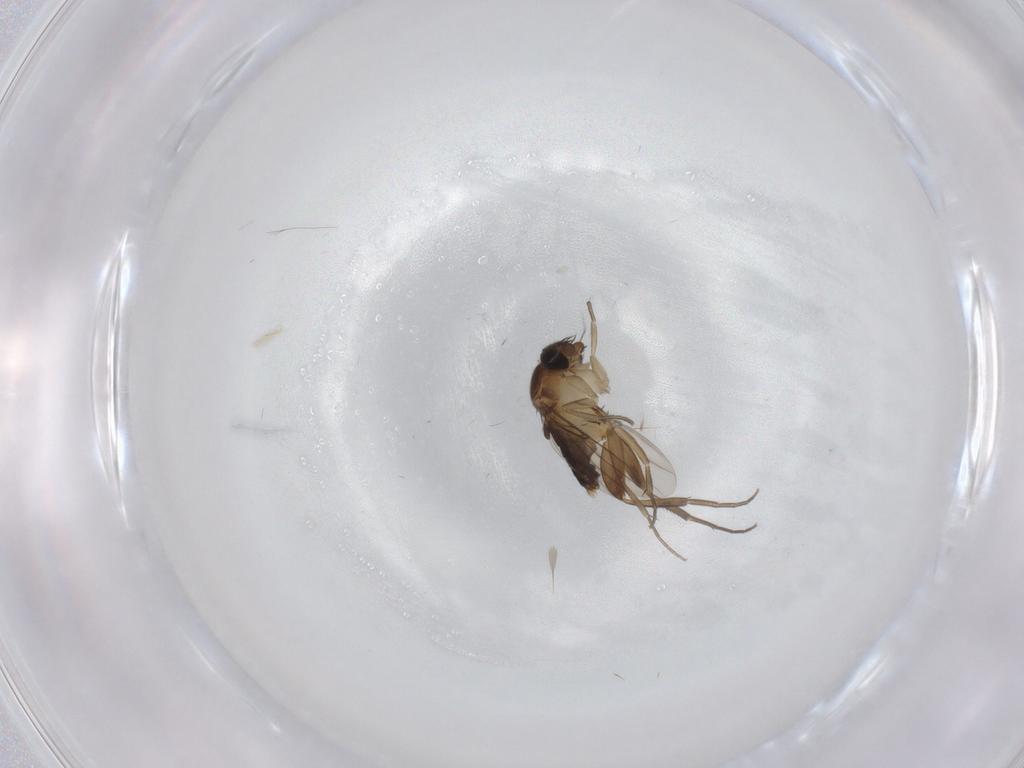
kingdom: Animalia
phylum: Arthropoda
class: Insecta
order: Diptera
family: Phoridae
